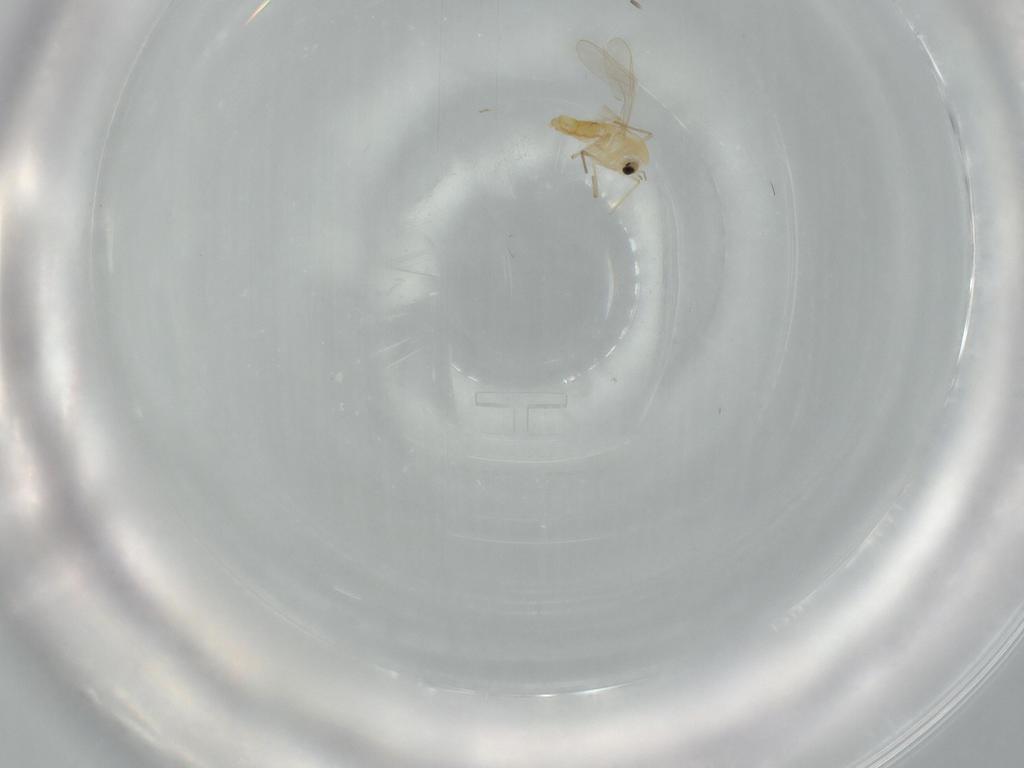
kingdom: Animalia
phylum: Arthropoda
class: Insecta
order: Diptera
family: Chironomidae
